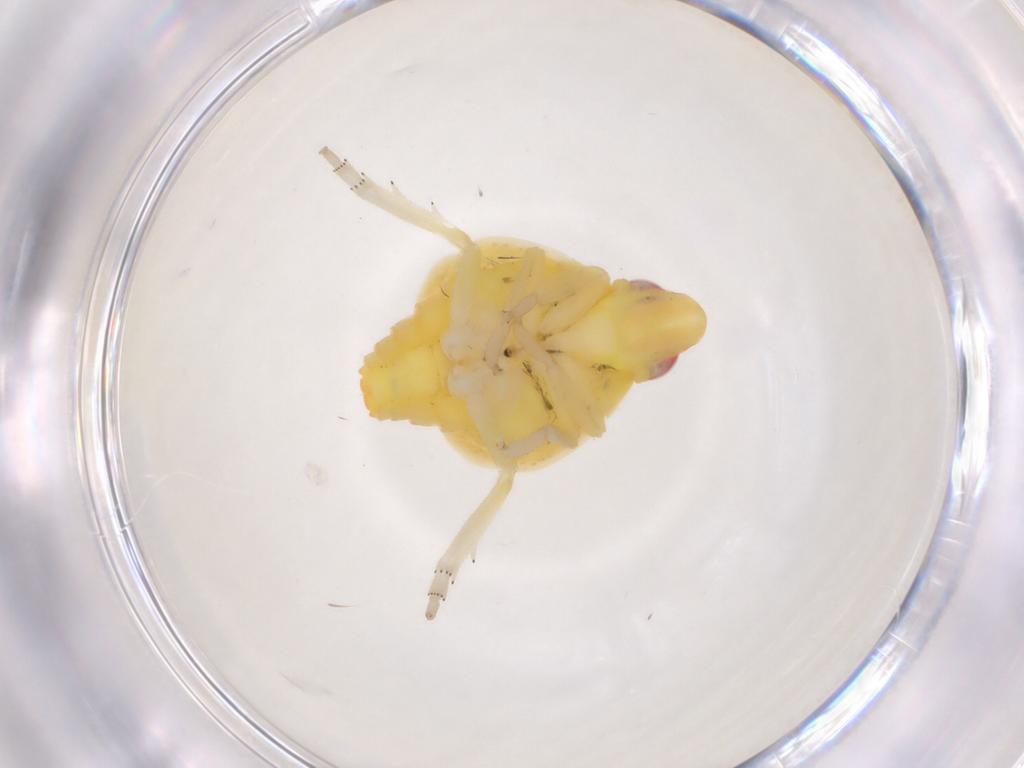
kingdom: Animalia
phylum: Arthropoda
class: Insecta
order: Hemiptera
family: Tropiduchidae
